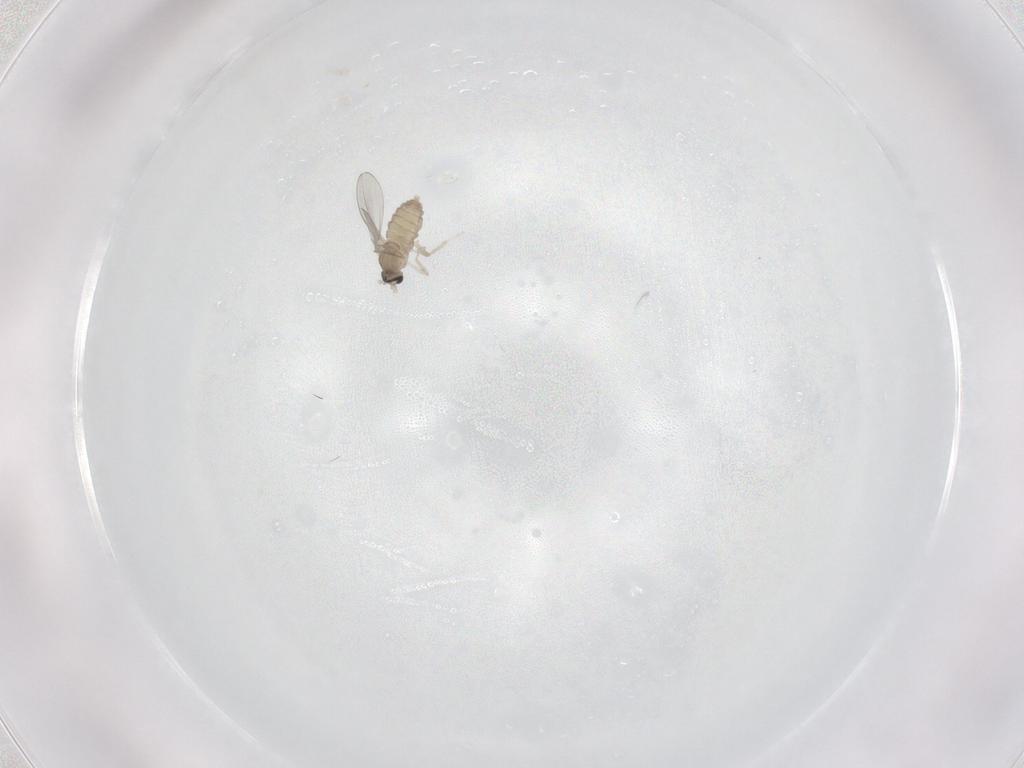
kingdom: Animalia
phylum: Arthropoda
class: Insecta
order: Diptera
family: Cecidomyiidae
